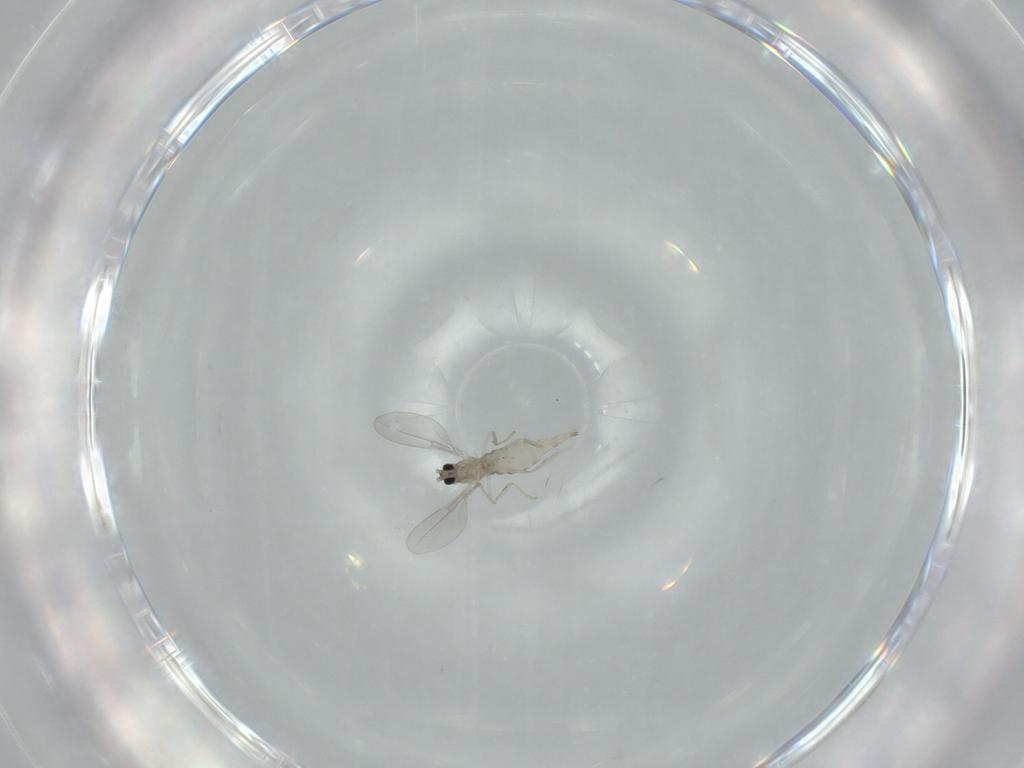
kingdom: Animalia
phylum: Arthropoda
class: Insecta
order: Diptera
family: Cecidomyiidae
